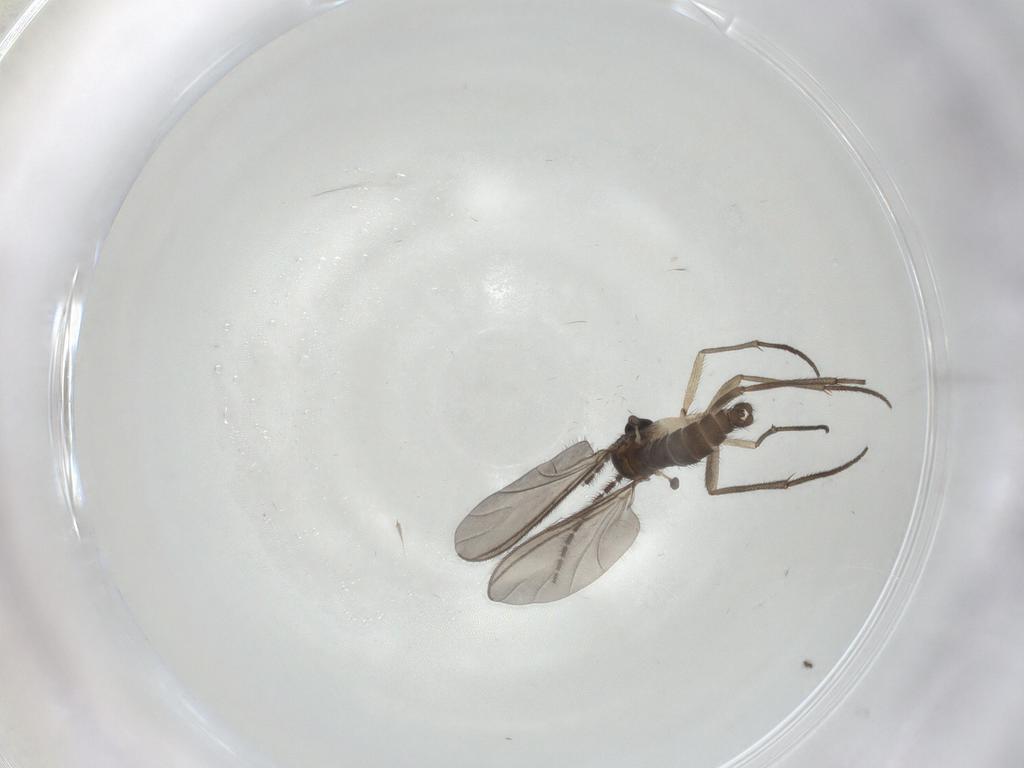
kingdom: Animalia
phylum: Arthropoda
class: Insecta
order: Diptera
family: Sciaridae
